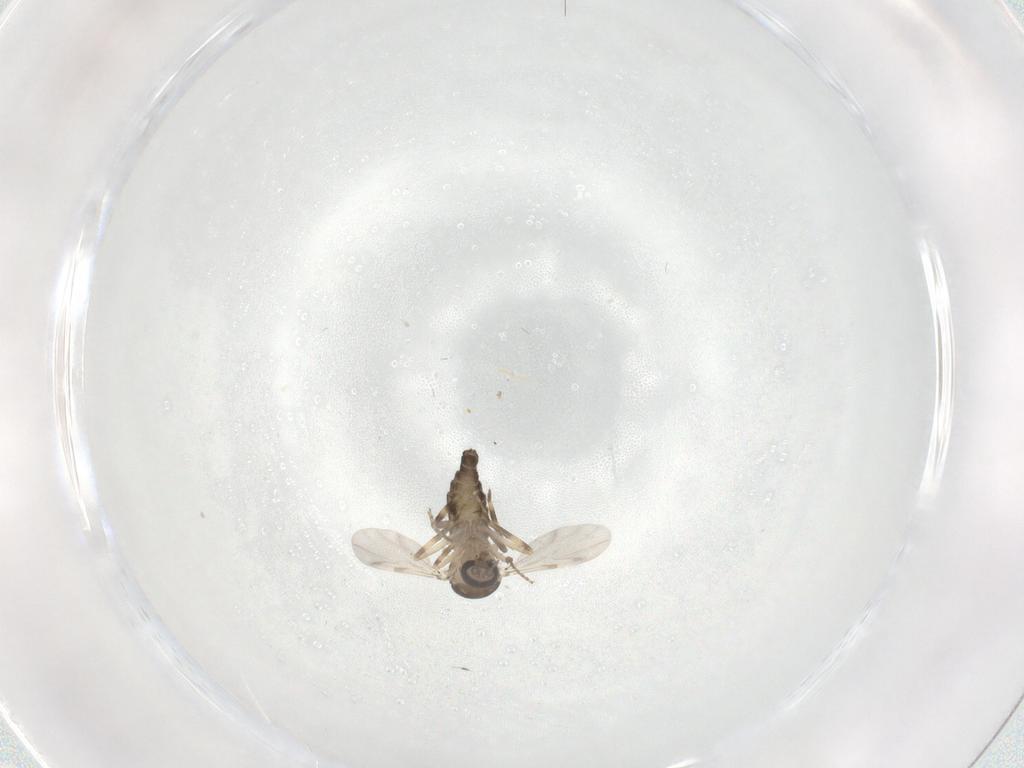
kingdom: Animalia
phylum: Arthropoda
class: Insecta
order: Diptera
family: Ceratopogonidae
